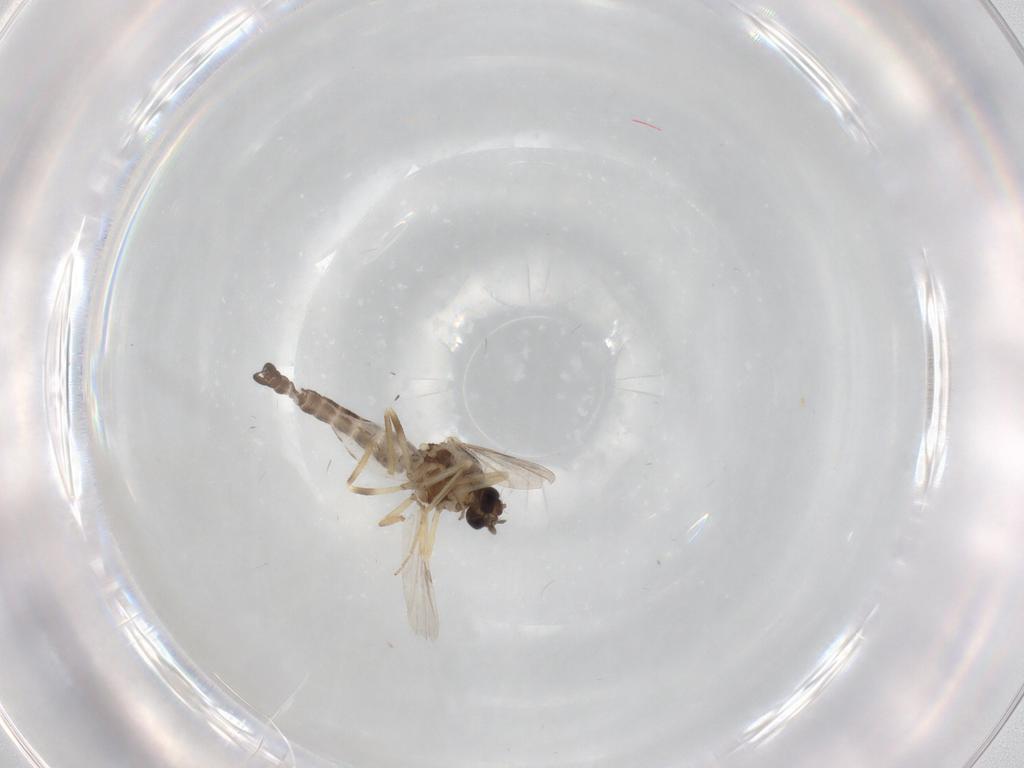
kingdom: Animalia
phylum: Arthropoda
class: Insecta
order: Diptera
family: Ceratopogonidae
